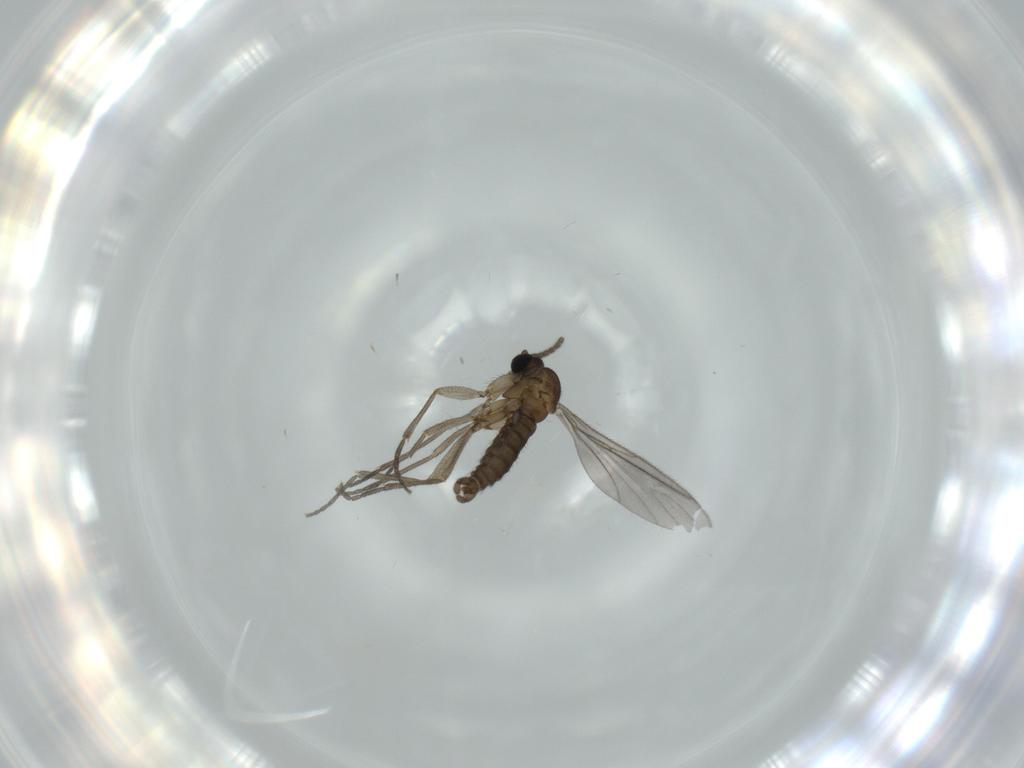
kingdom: Animalia
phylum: Arthropoda
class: Insecta
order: Diptera
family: Sciaridae
